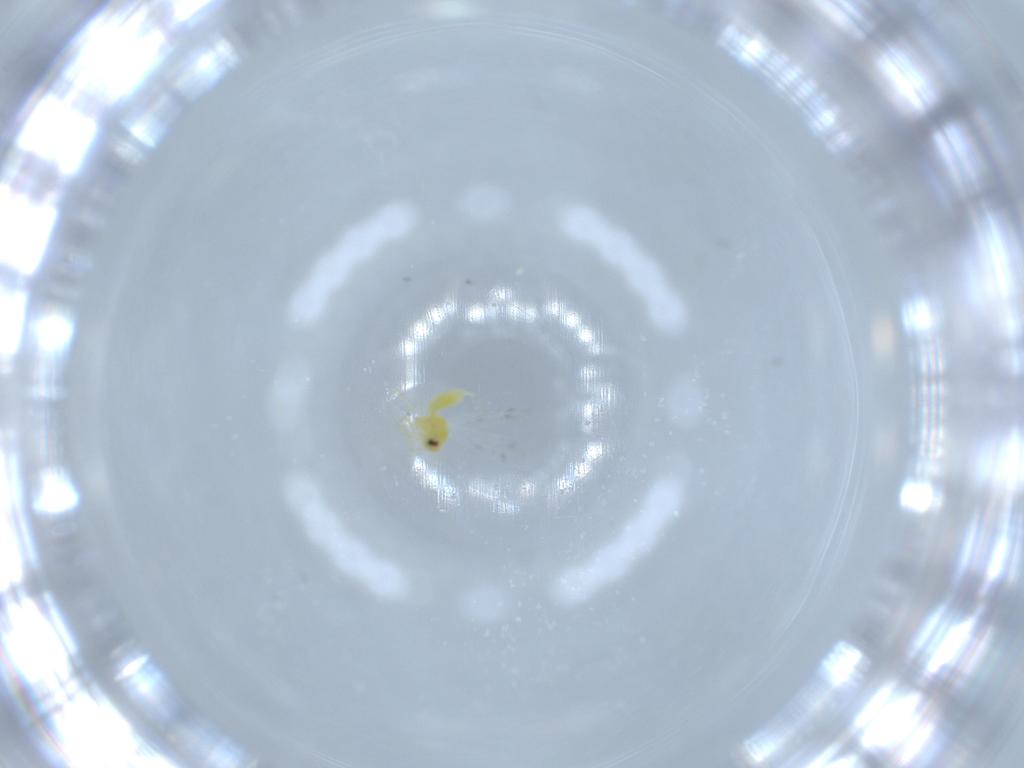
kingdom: Animalia
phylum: Arthropoda
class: Insecta
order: Hemiptera
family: Aleyrodidae
